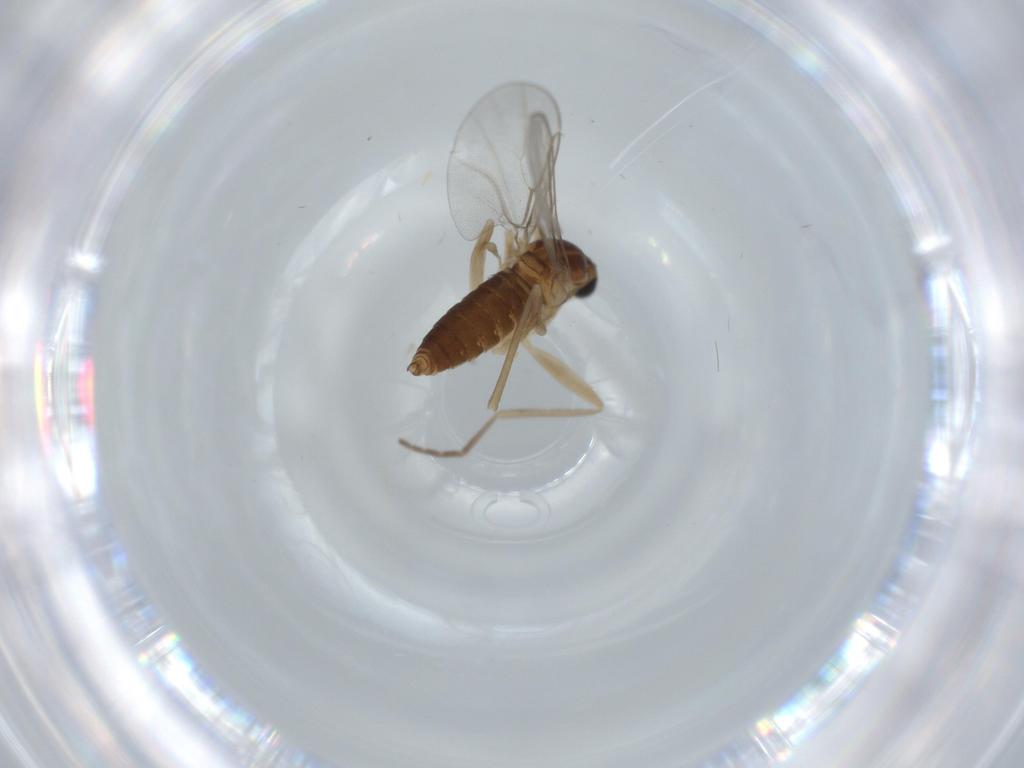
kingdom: Animalia
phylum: Arthropoda
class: Insecta
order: Diptera
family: Cecidomyiidae
